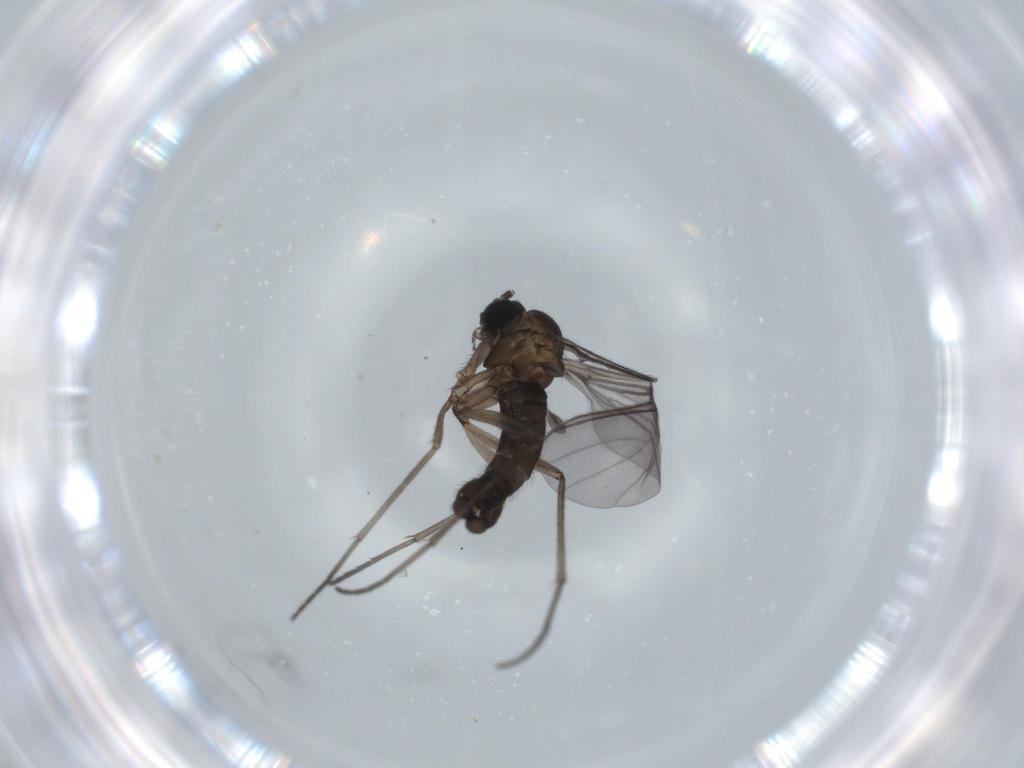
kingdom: Animalia
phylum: Arthropoda
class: Insecta
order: Diptera
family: Sciaridae
